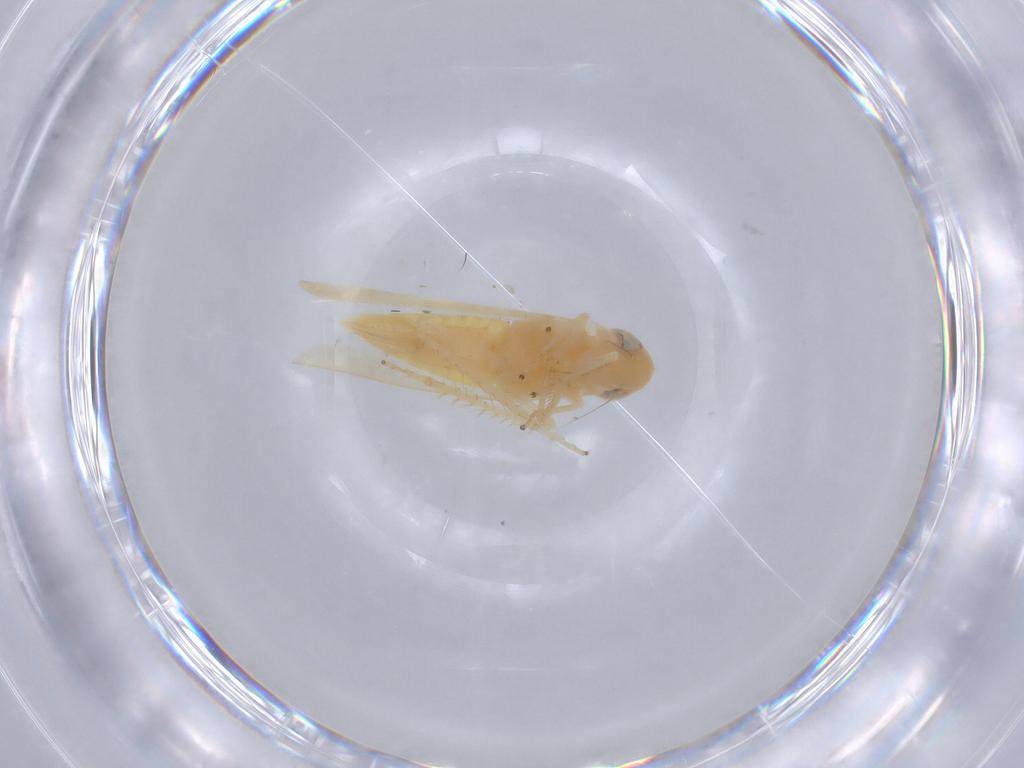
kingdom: Animalia
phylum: Arthropoda
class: Insecta
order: Hemiptera
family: Cicadellidae
